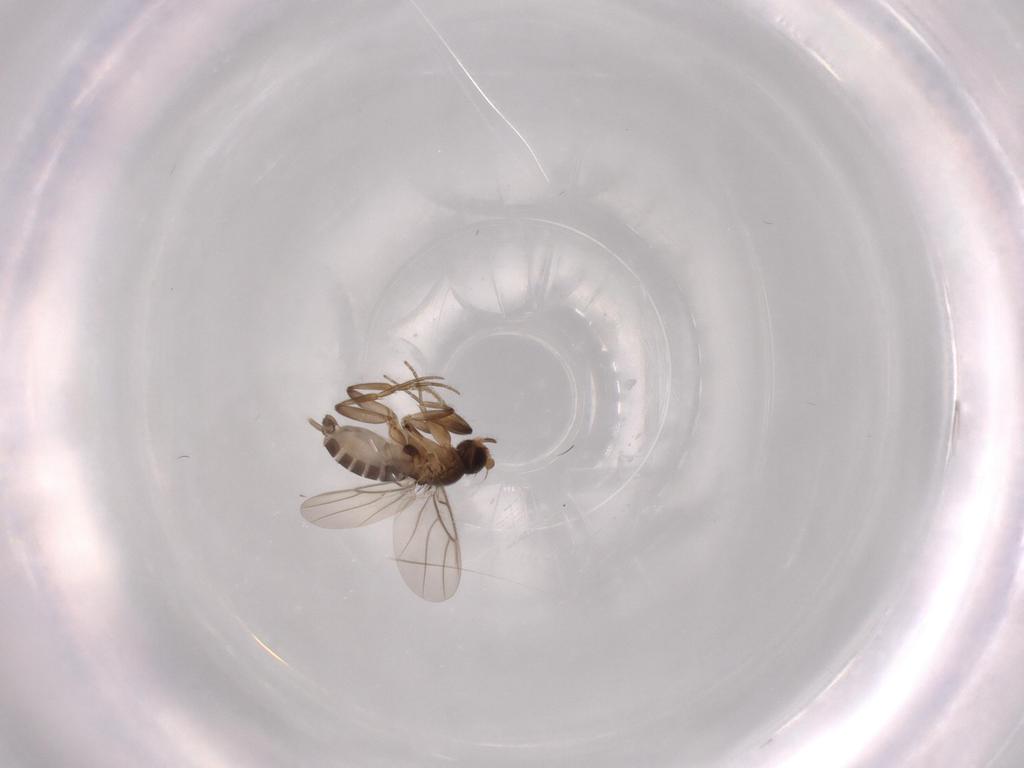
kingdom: Animalia
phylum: Arthropoda
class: Insecta
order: Diptera
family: Phoridae
